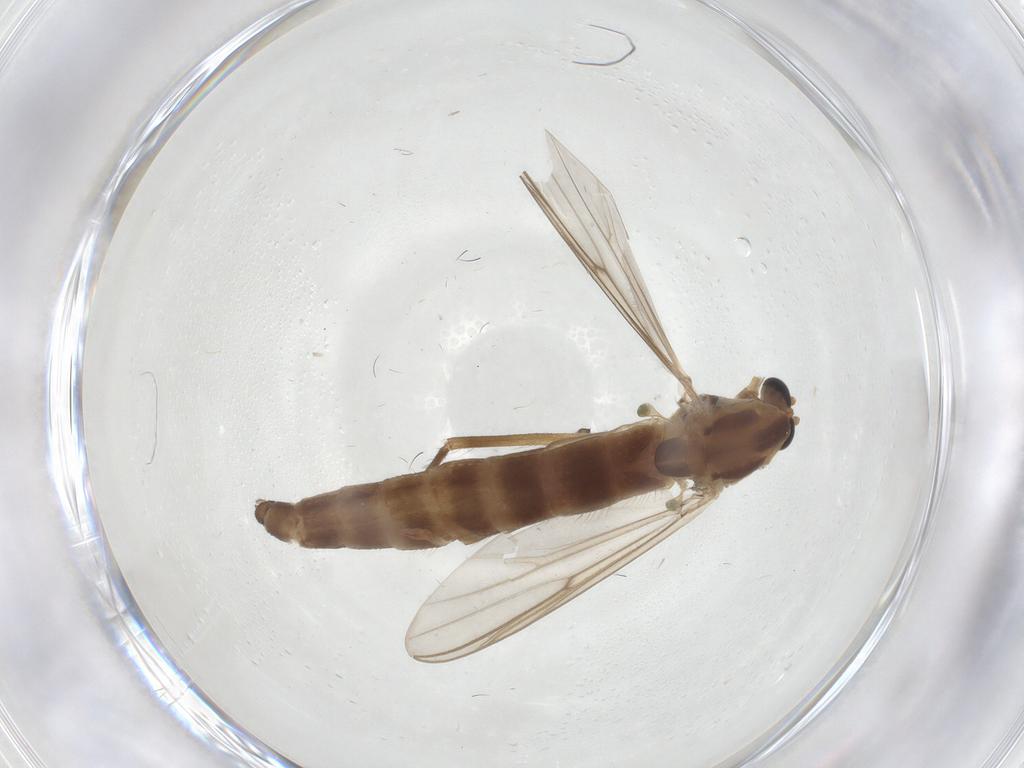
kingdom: Animalia
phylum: Arthropoda
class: Insecta
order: Diptera
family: Chironomidae
